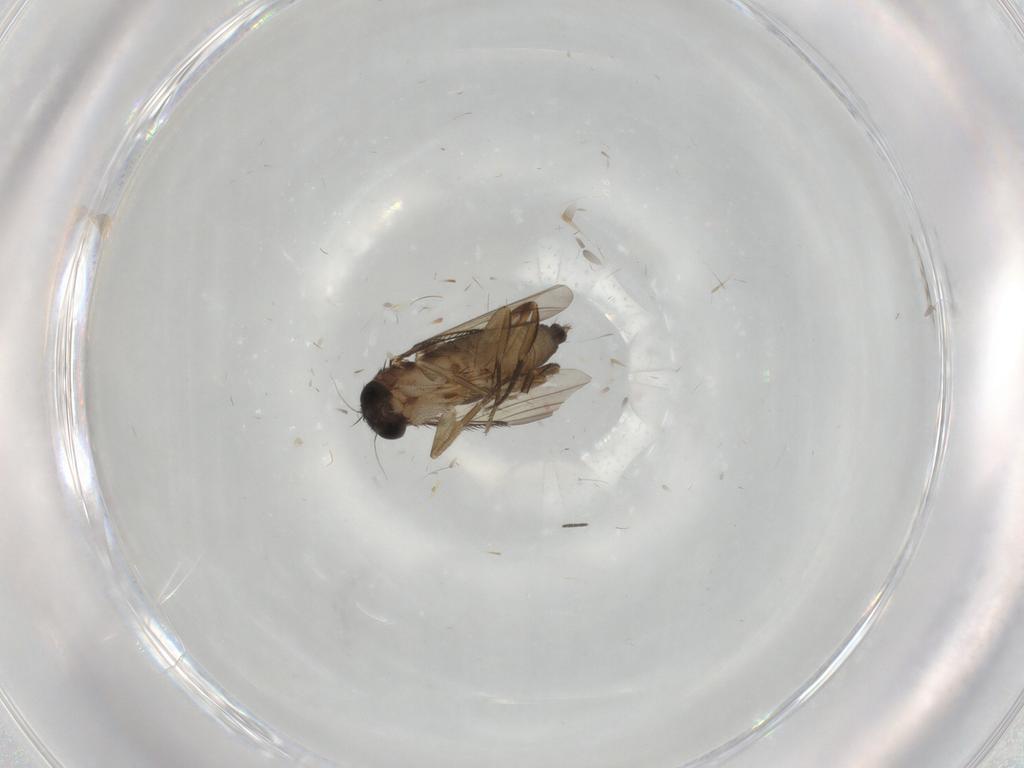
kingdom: Animalia
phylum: Arthropoda
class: Insecta
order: Diptera
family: Phoridae
